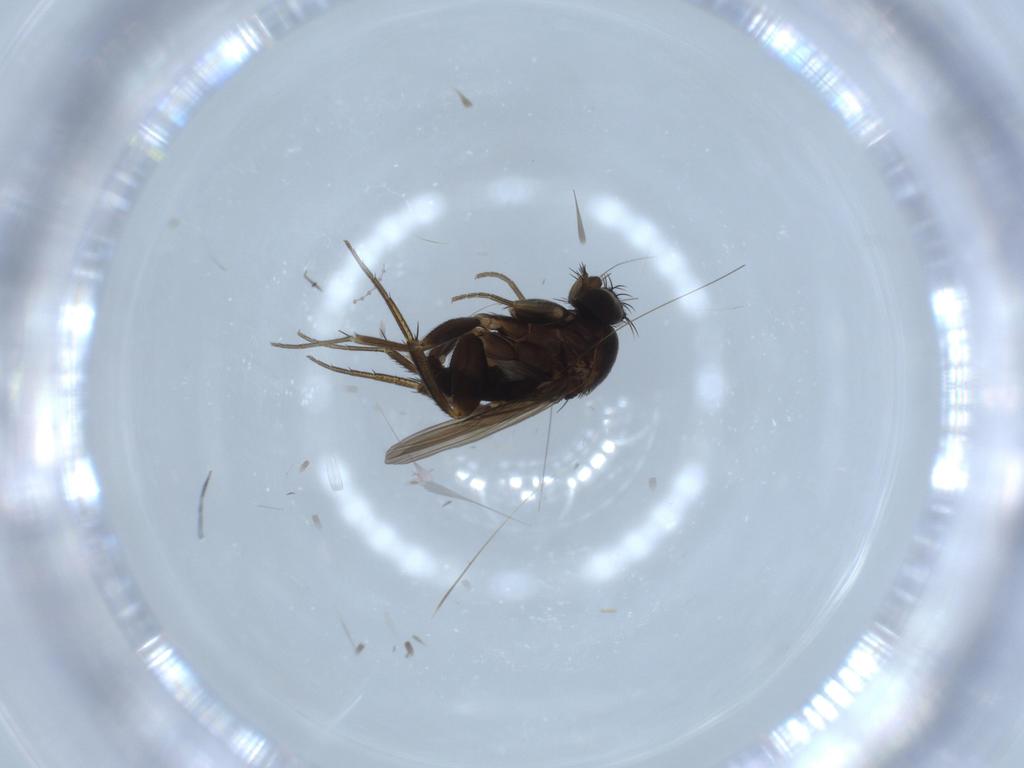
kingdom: Animalia
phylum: Arthropoda
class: Insecta
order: Diptera
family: Phoridae
